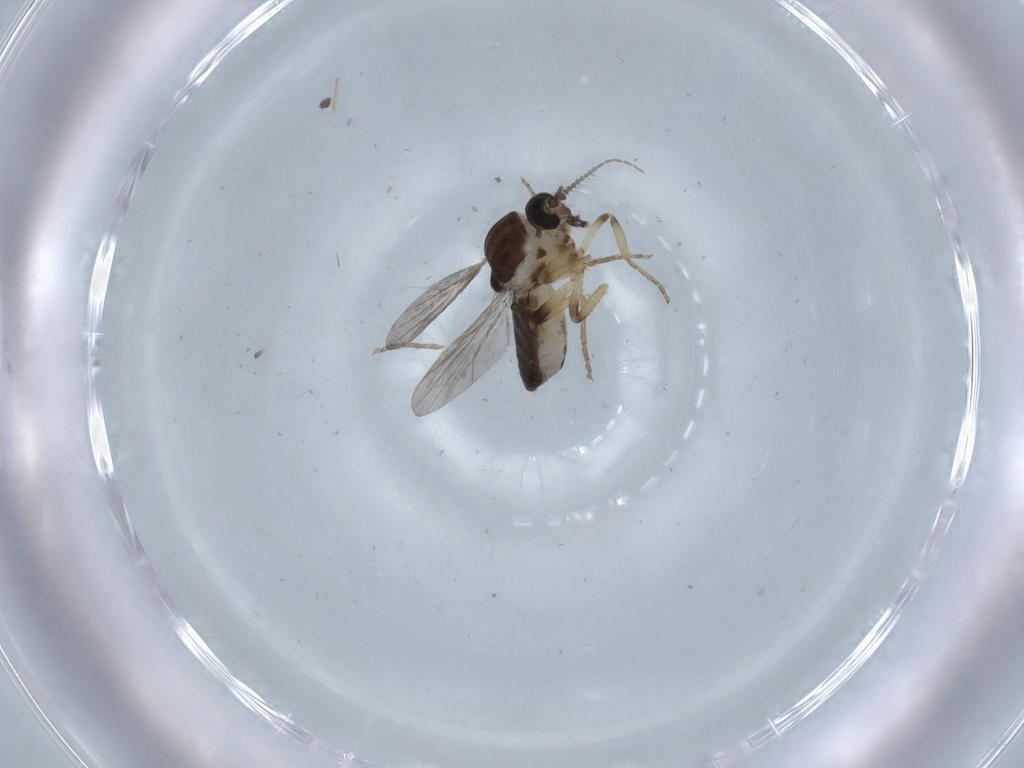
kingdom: Animalia
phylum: Arthropoda
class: Insecta
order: Diptera
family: Ceratopogonidae
